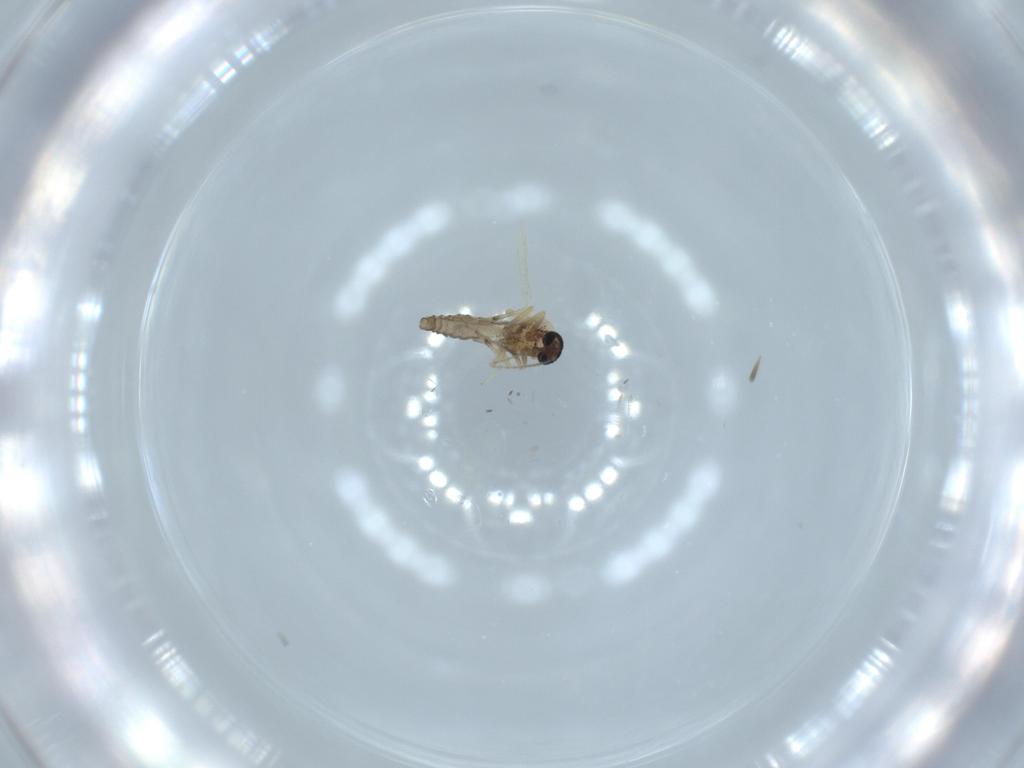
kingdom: Animalia
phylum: Arthropoda
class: Insecta
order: Diptera
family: Ceratopogonidae
